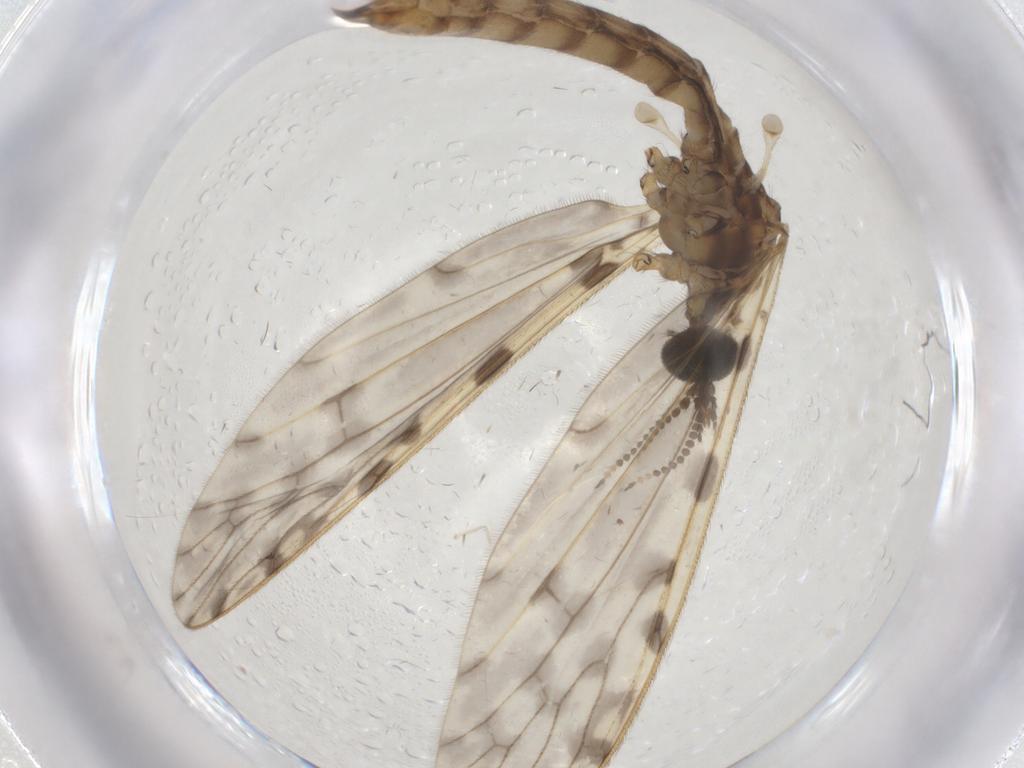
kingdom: Animalia
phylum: Arthropoda
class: Insecta
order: Diptera
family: Limoniidae
